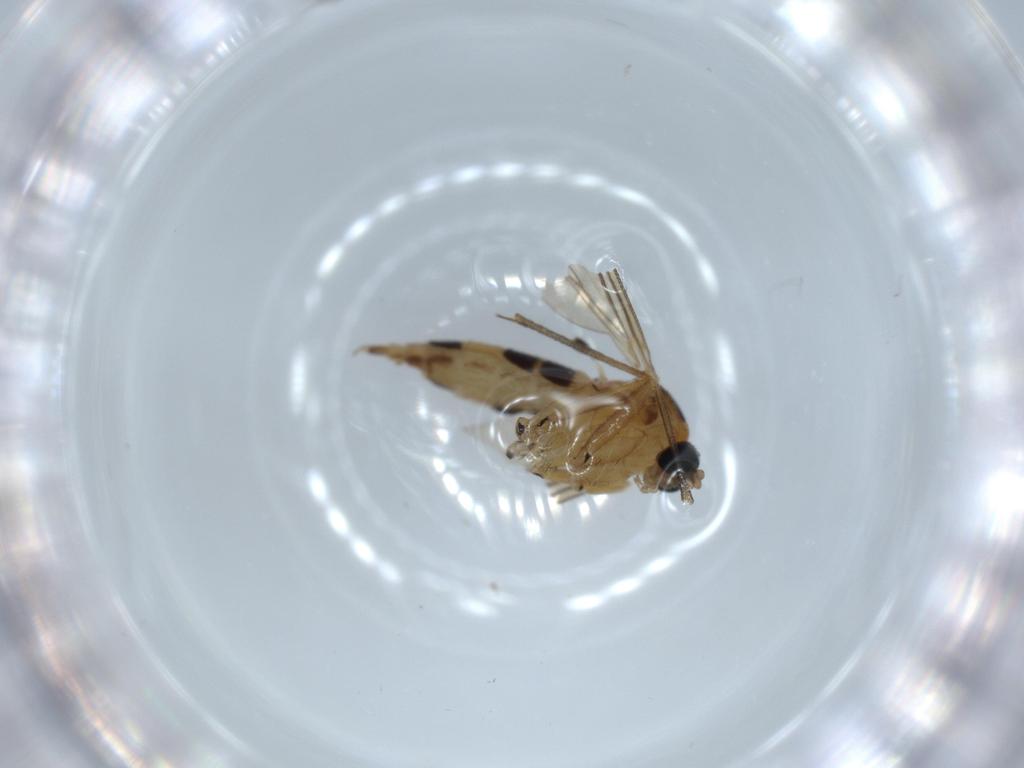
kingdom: Animalia
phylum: Arthropoda
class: Insecta
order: Diptera
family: Sciaridae
